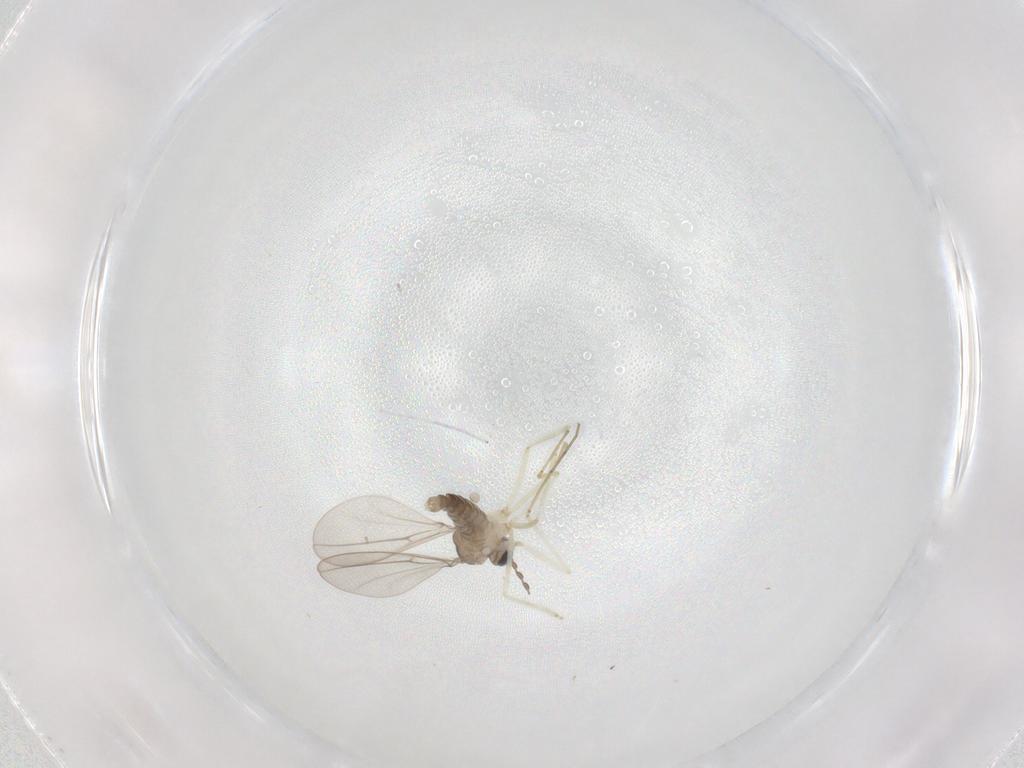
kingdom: Animalia
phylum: Arthropoda
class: Insecta
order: Diptera
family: Cecidomyiidae
